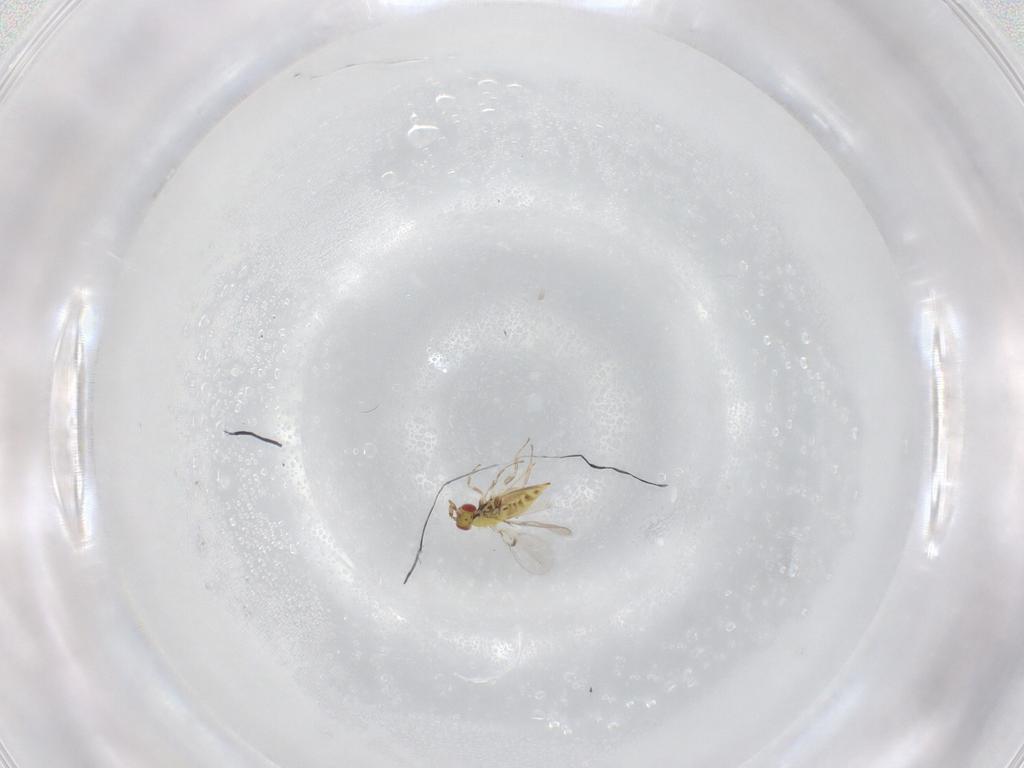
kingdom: Animalia
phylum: Arthropoda
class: Insecta
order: Hymenoptera
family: Trichogrammatidae
